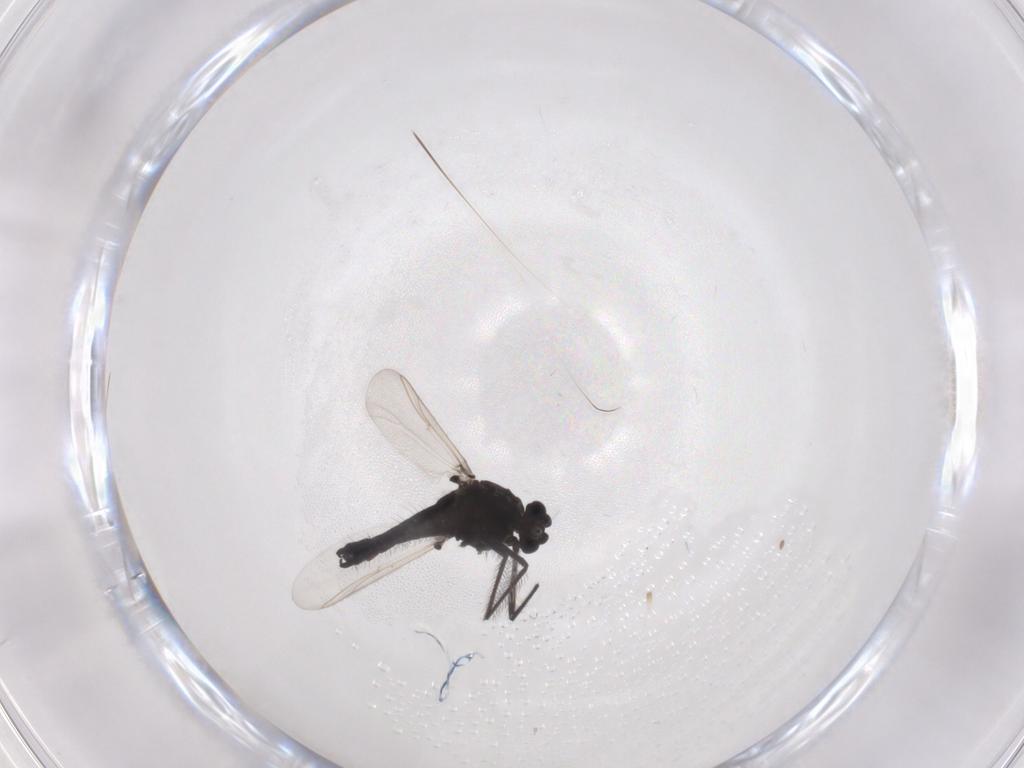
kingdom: Animalia
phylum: Arthropoda
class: Insecta
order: Diptera
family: Chironomidae
